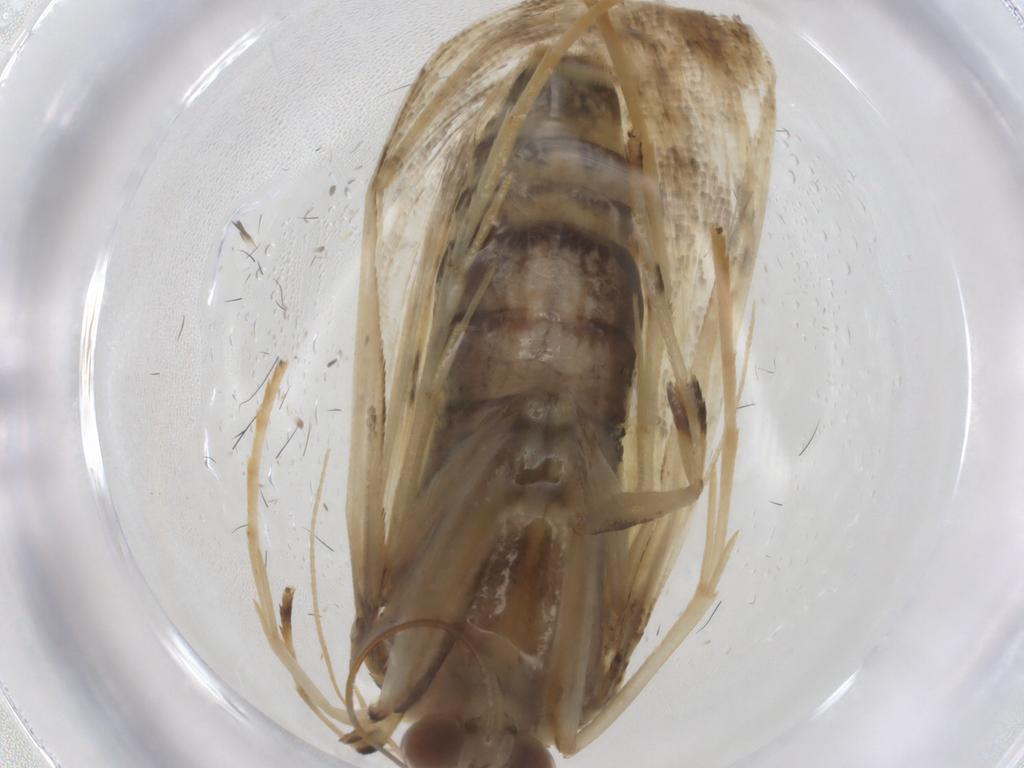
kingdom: Animalia
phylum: Arthropoda
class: Insecta
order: Lepidoptera
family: Crambidae
